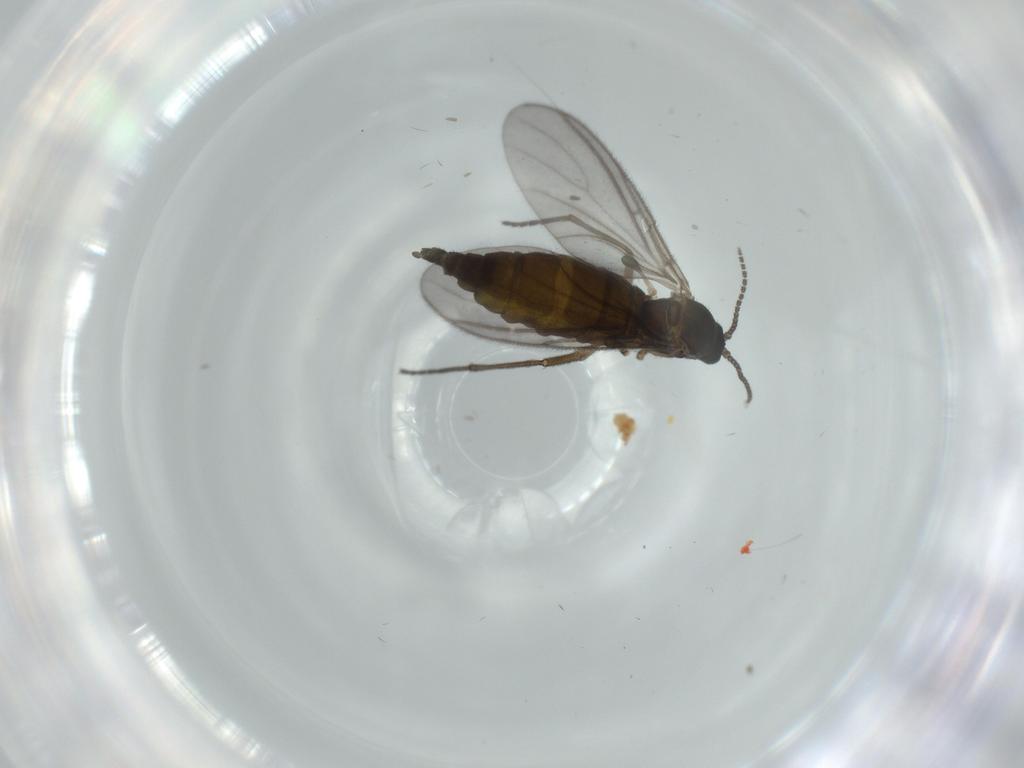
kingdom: Animalia
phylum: Arthropoda
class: Insecta
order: Diptera
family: Sciaridae
